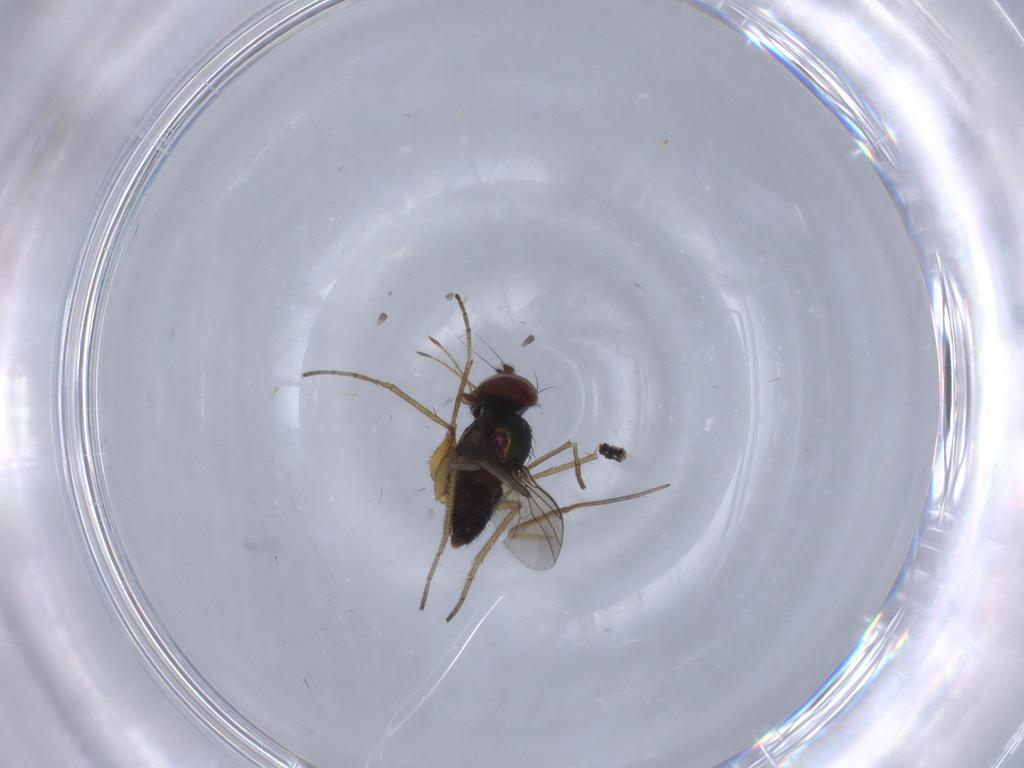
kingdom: Animalia
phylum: Arthropoda
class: Insecta
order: Diptera
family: Dolichopodidae
